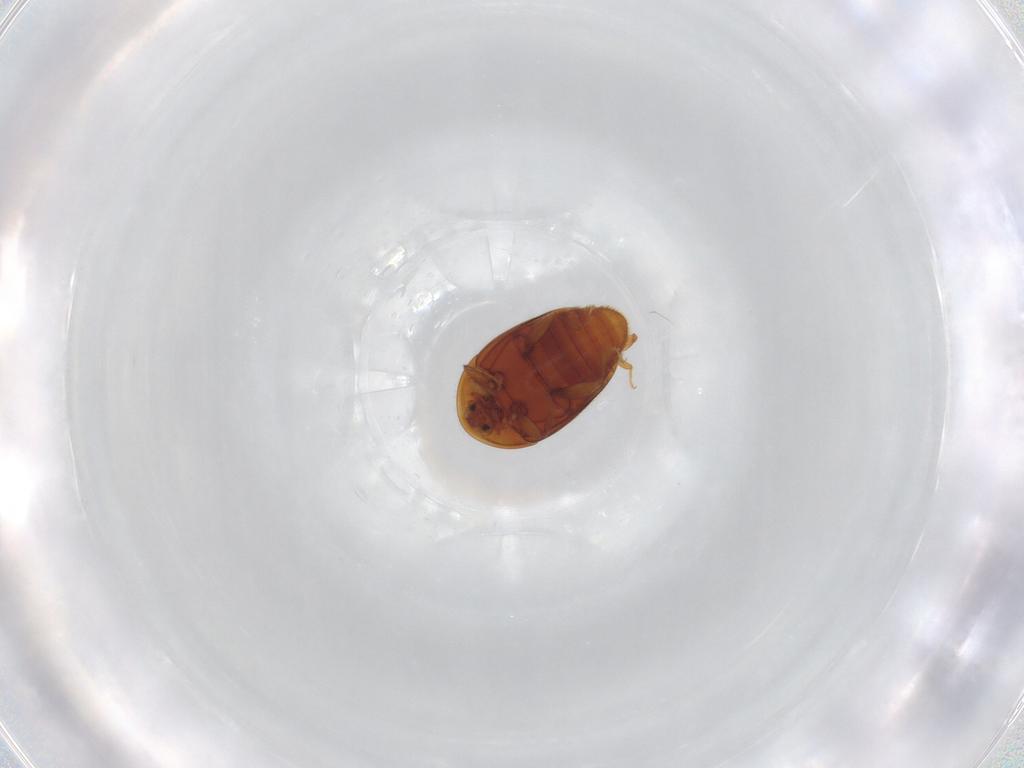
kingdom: Animalia
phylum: Arthropoda
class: Insecta
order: Coleoptera
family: Corylophidae
